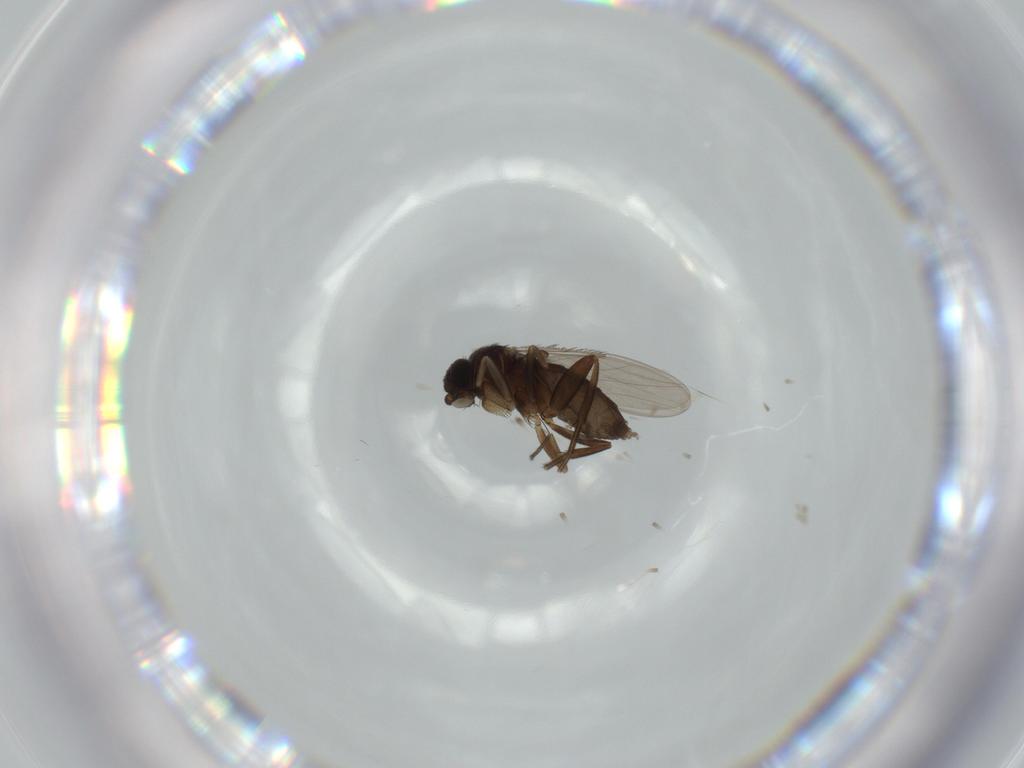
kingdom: Animalia
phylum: Arthropoda
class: Insecta
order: Diptera
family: Phoridae
